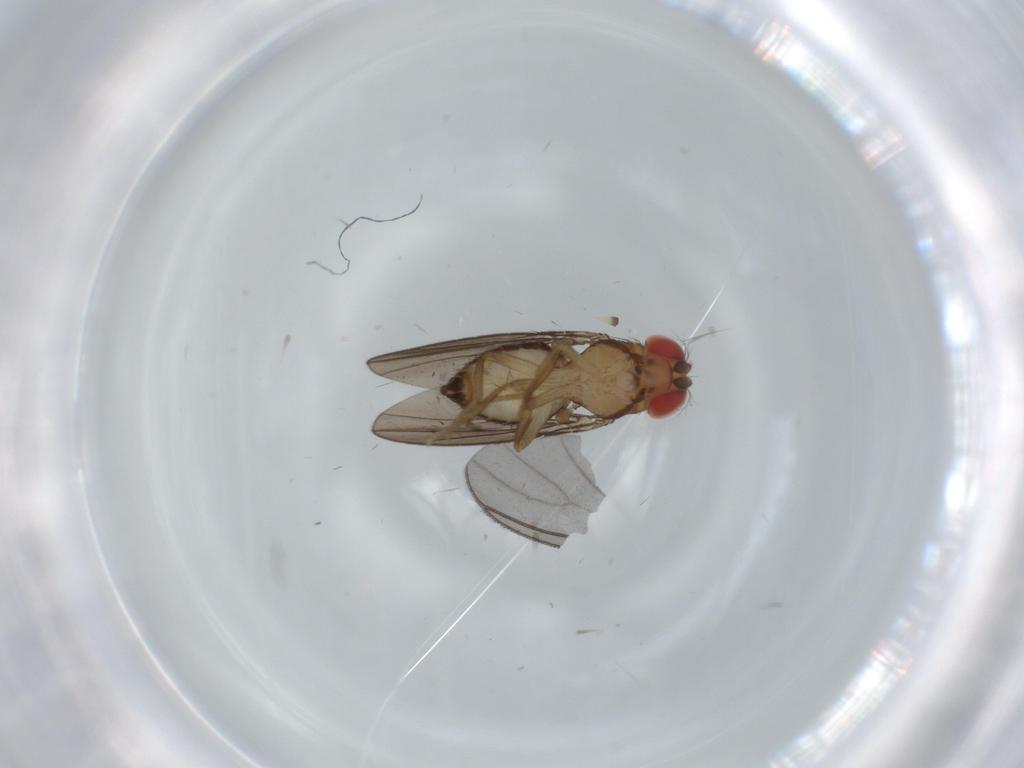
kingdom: Animalia
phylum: Arthropoda
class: Insecta
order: Diptera
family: Drosophilidae
